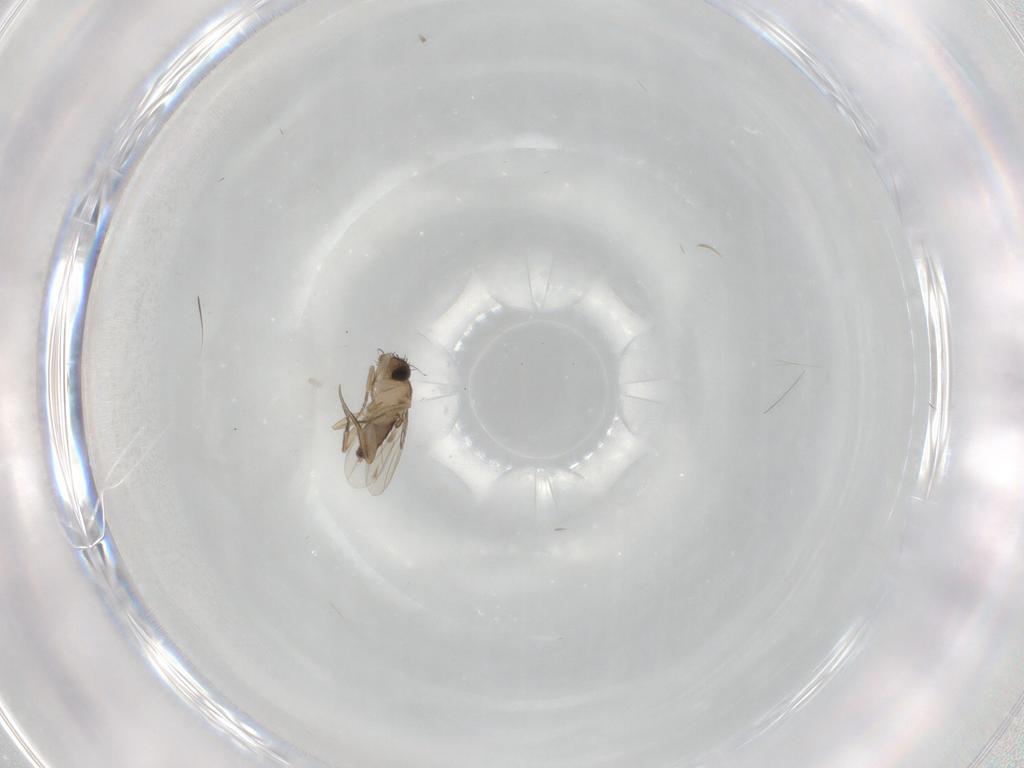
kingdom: Animalia
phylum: Arthropoda
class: Insecta
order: Diptera
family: Phoridae
